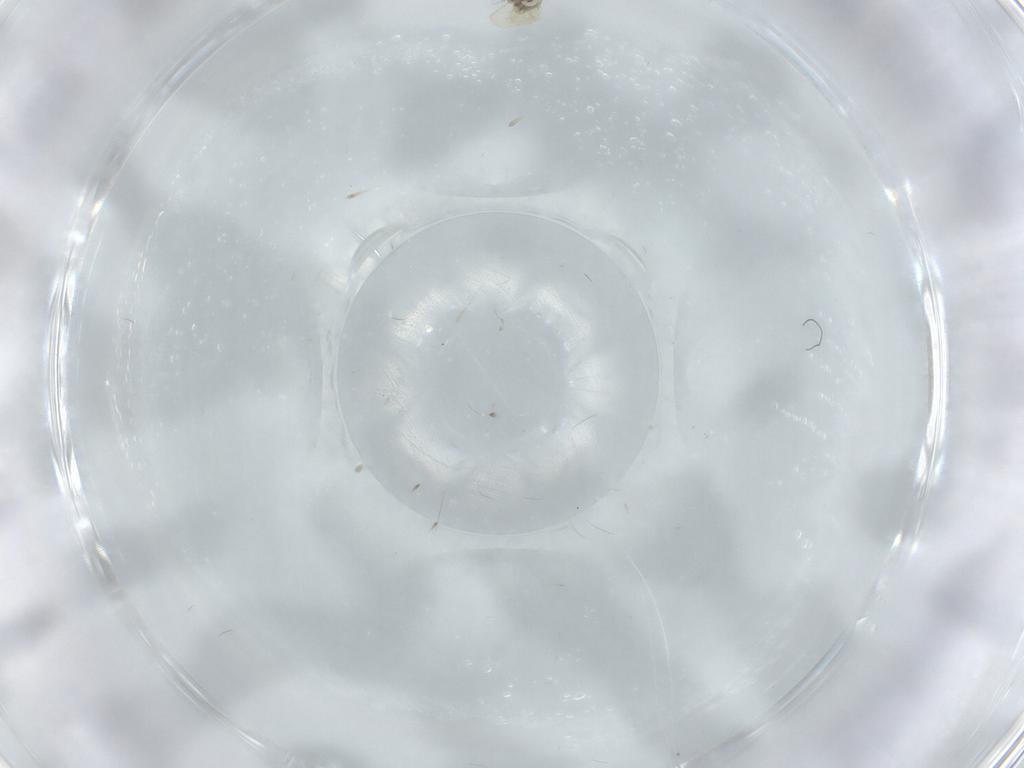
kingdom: Animalia
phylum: Arthropoda
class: Insecta
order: Hemiptera
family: Aleyrodidae
